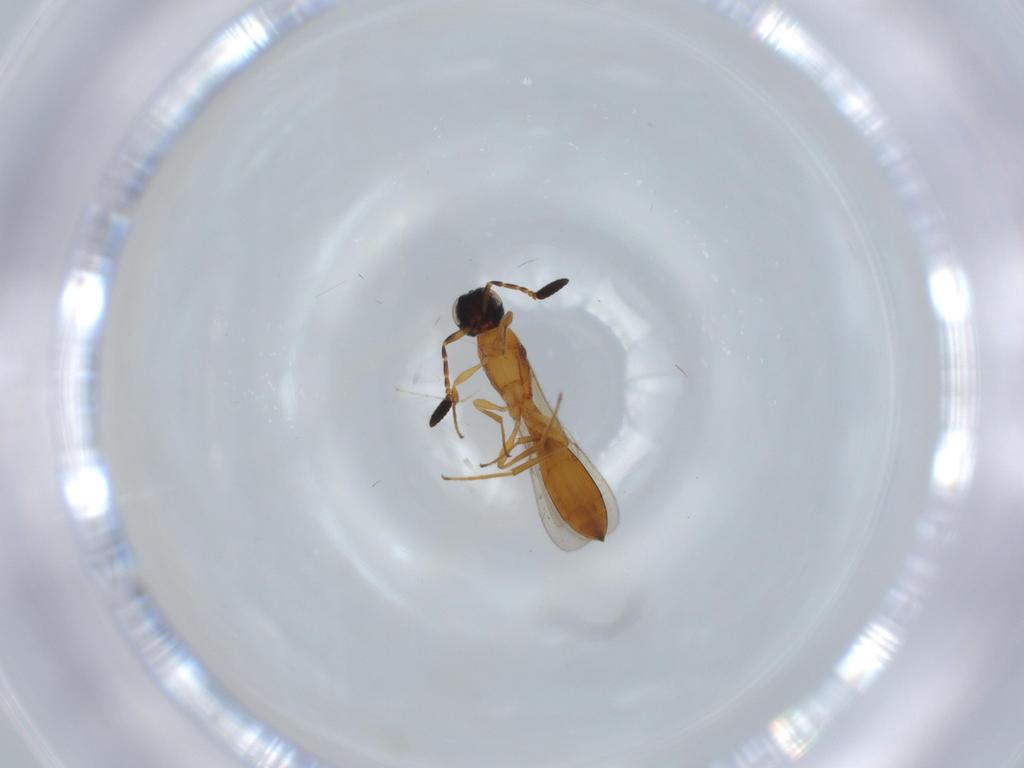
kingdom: Animalia
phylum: Arthropoda
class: Insecta
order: Hymenoptera
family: Scelionidae
